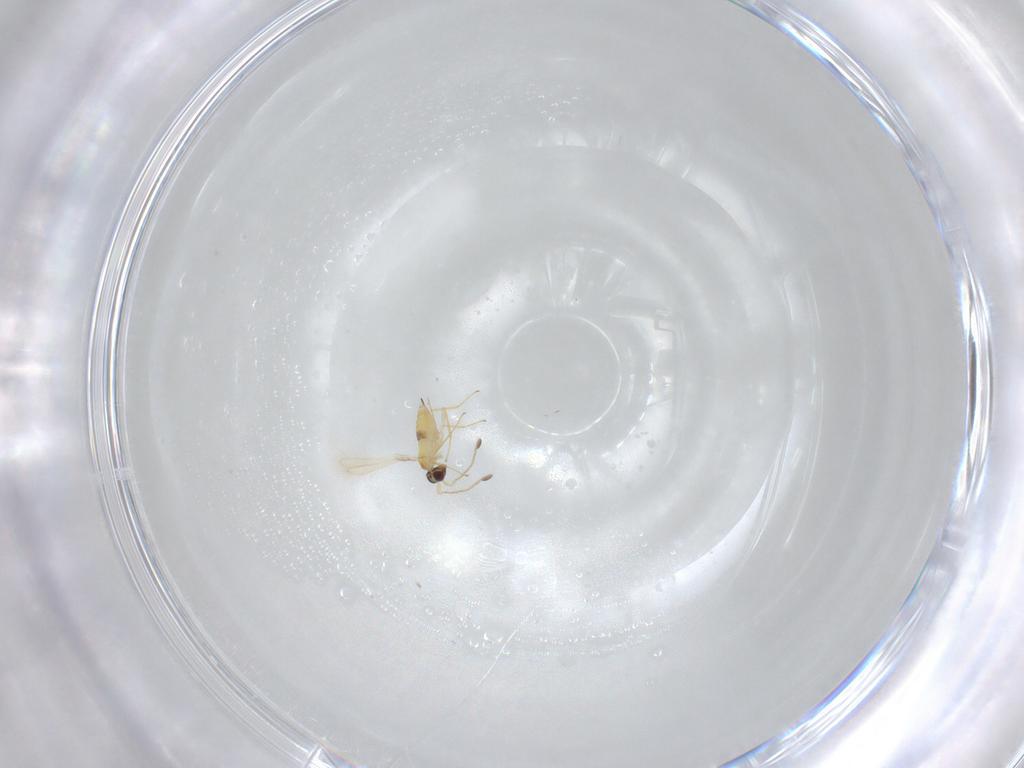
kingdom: Animalia
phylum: Arthropoda
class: Insecta
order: Hymenoptera
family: Mymaridae
